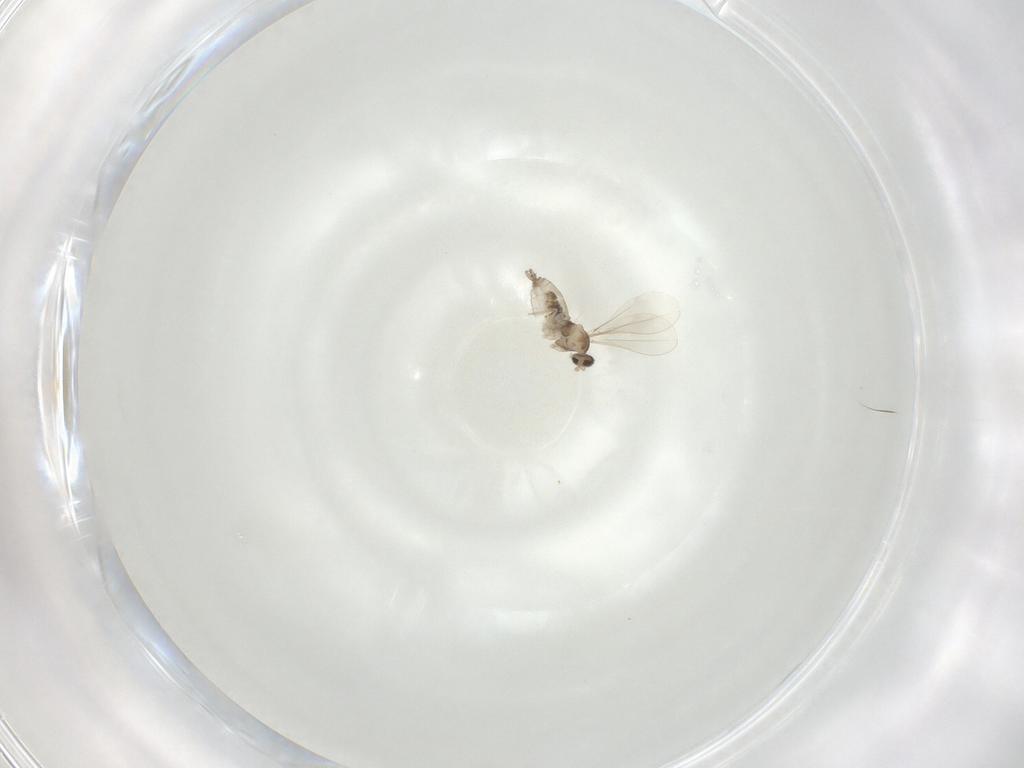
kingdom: Animalia
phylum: Arthropoda
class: Insecta
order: Diptera
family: Cecidomyiidae
